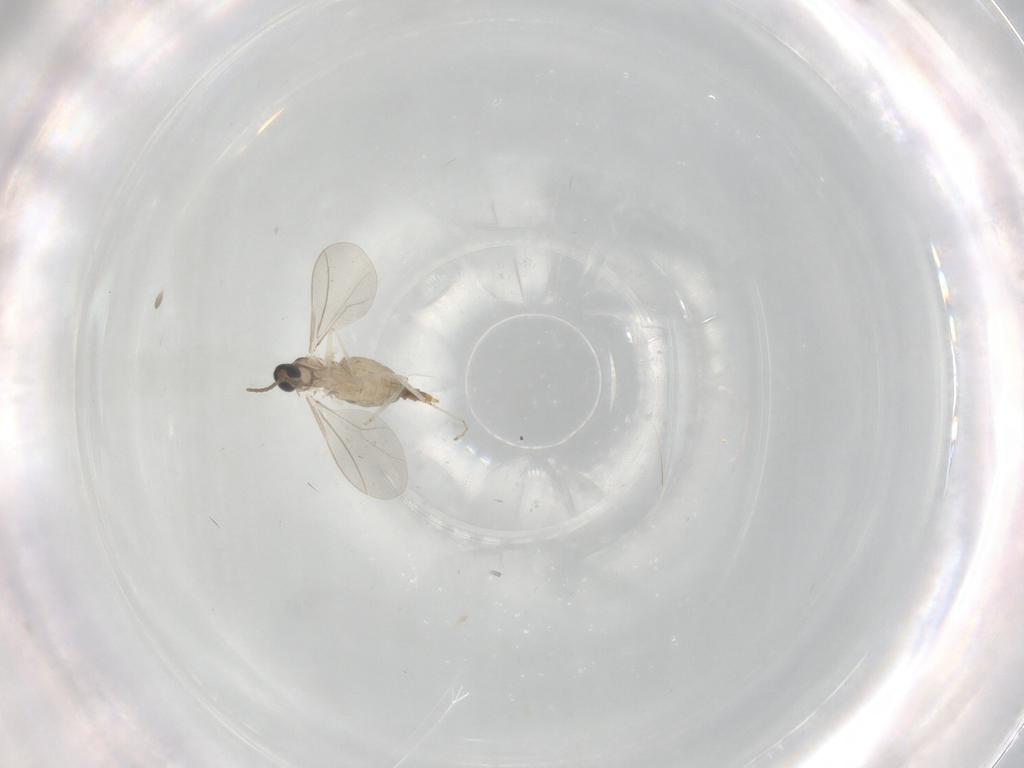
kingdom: Animalia
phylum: Arthropoda
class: Insecta
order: Diptera
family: Cecidomyiidae
